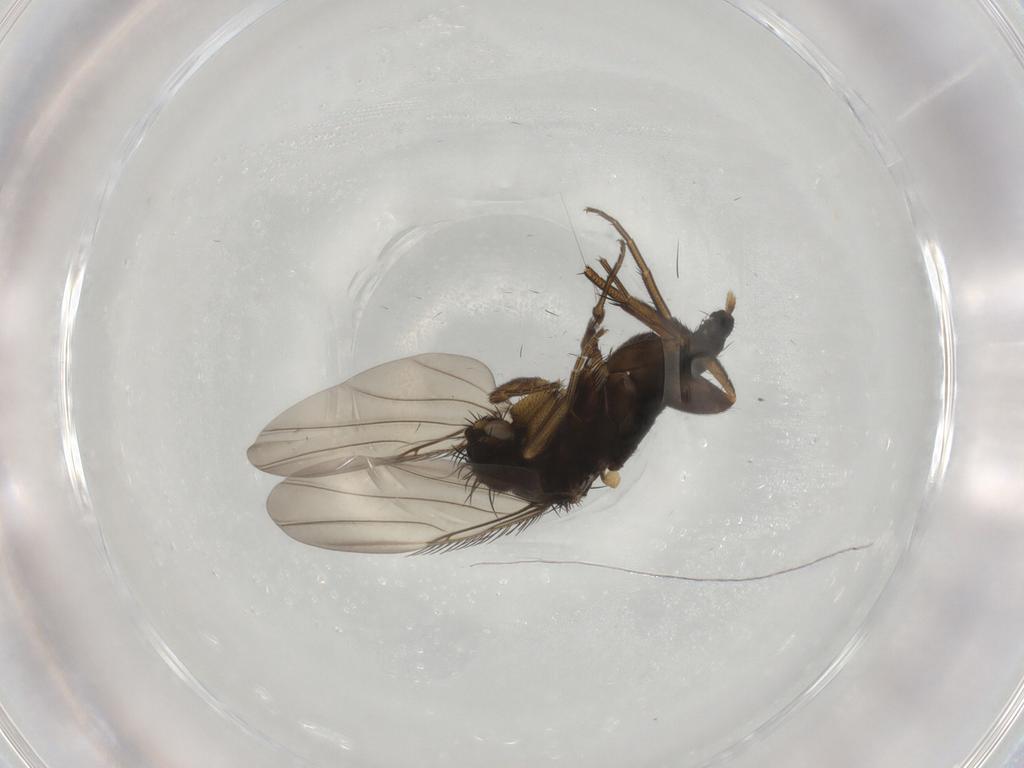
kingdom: Animalia
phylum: Arthropoda
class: Insecta
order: Diptera
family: Phoridae
